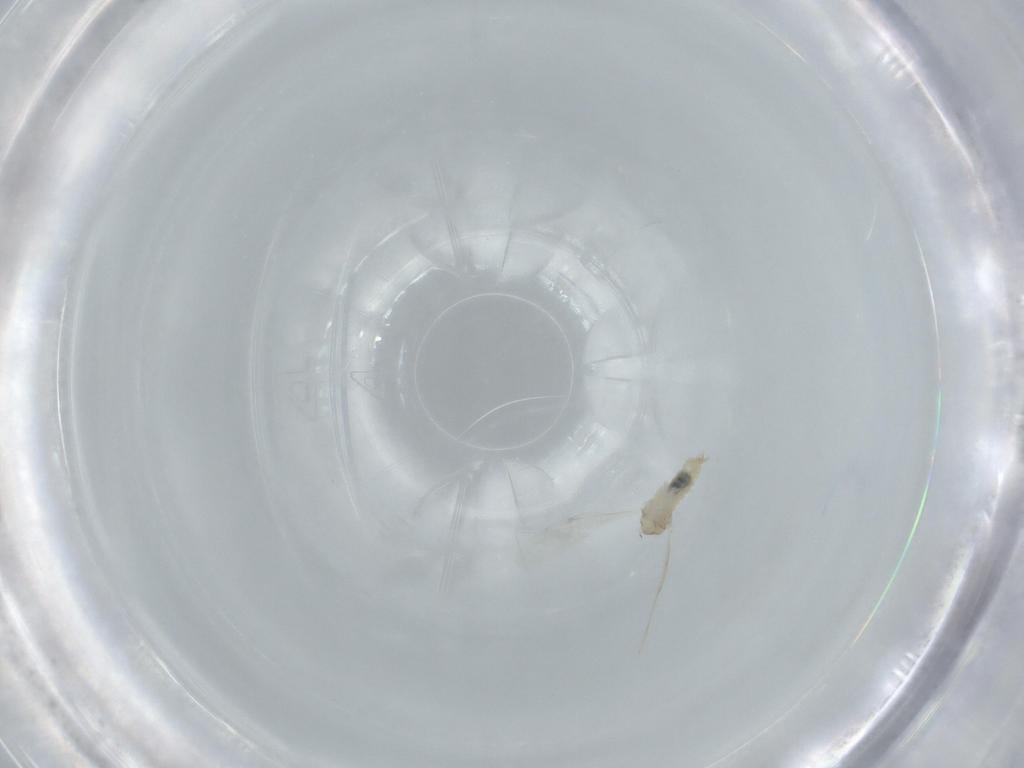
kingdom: Animalia
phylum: Arthropoda
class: Insecta
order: Diptera
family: Cecidomyiidae
